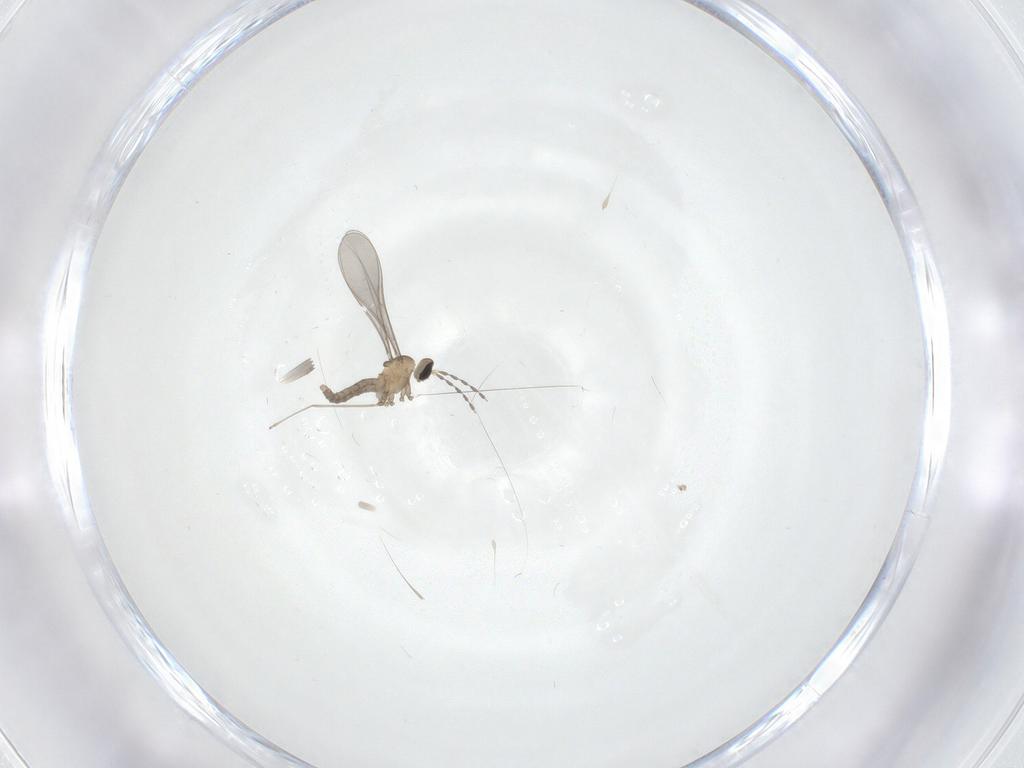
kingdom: Animalia
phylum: Arthropoda
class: Insecta
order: Diptera
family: Cecidomyiidae
